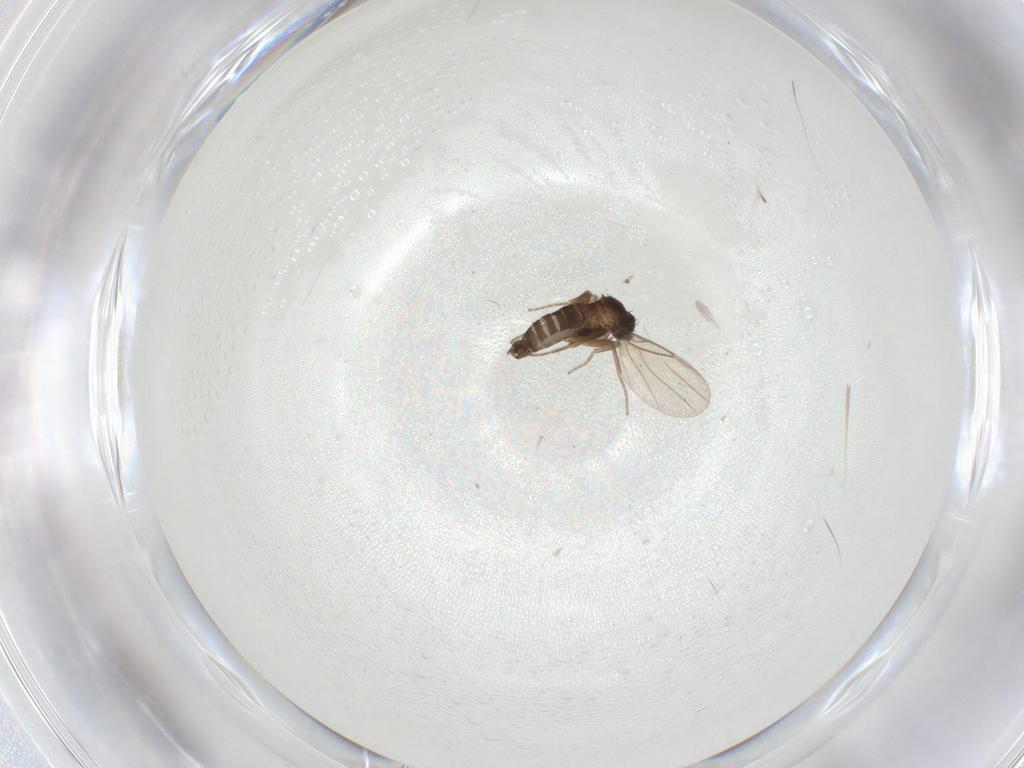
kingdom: Animalia
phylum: Arthropoda
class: Insecta
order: Diptera
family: Phoridae
